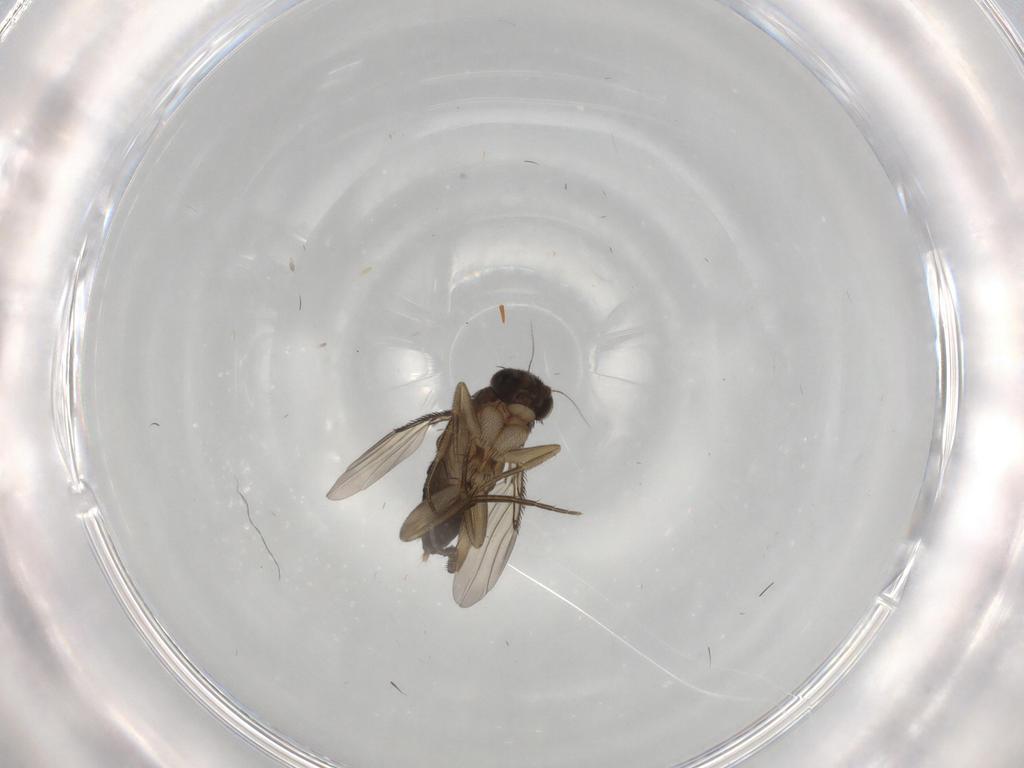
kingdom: Animalia
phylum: Arthropoda
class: Insecta
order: Diptera
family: Phoridae
